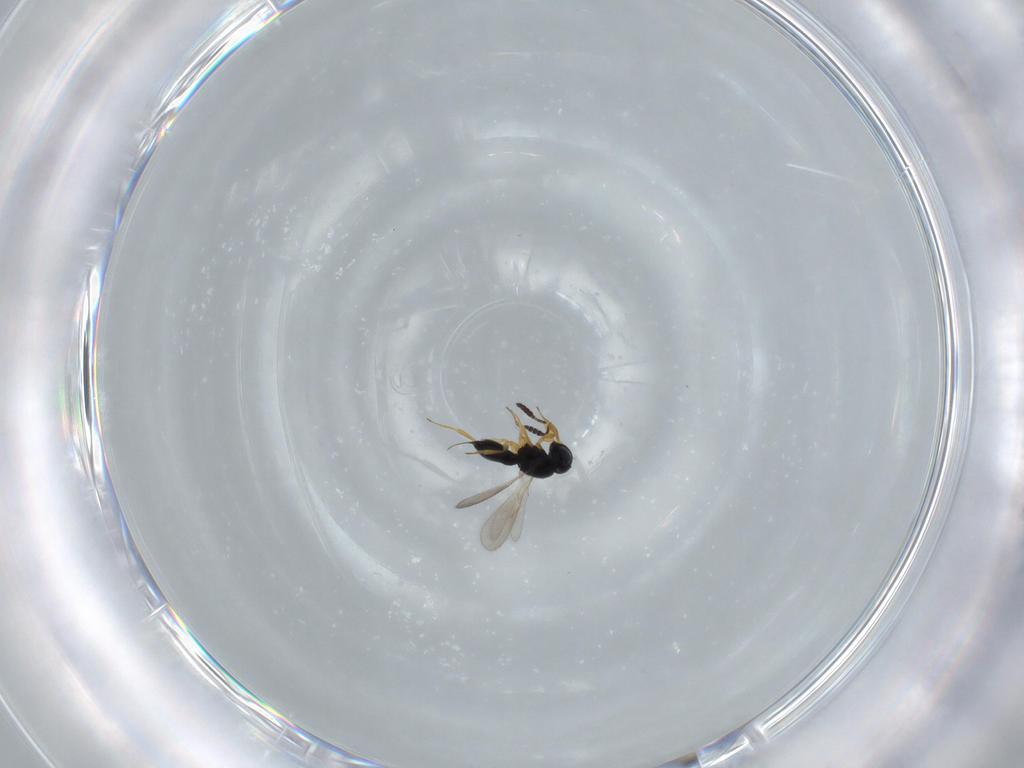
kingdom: Animalia
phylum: Arthropoda
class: Insecta
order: Hymenoptera
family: Scelionidae
